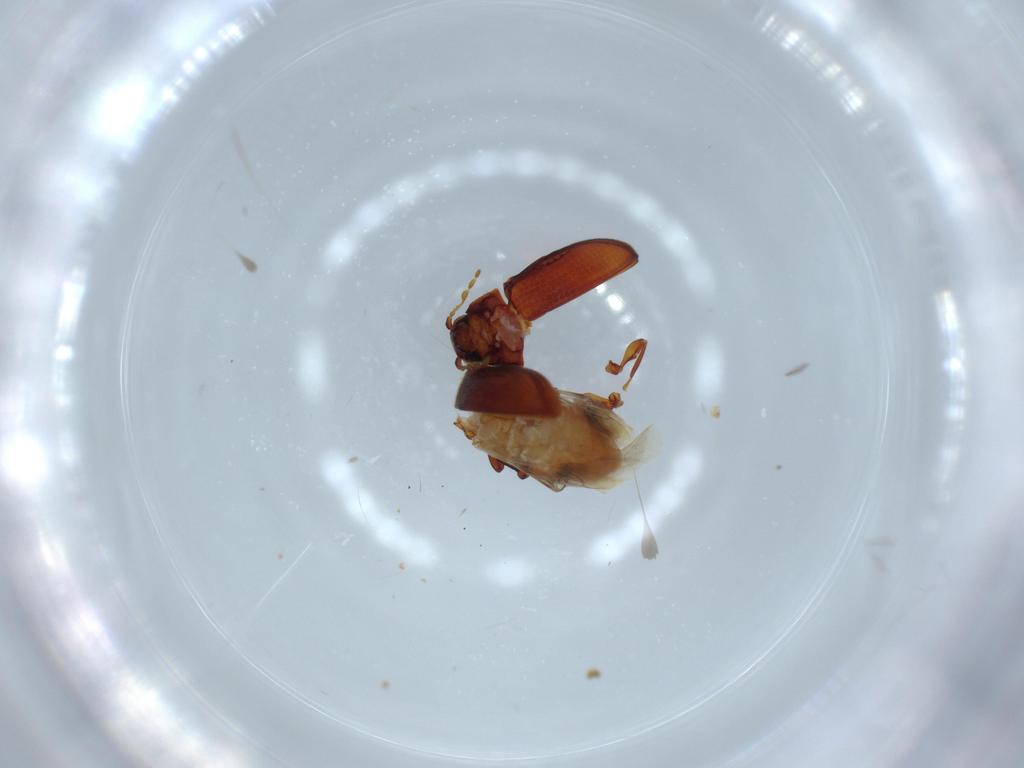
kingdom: Animalia
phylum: Arthropoda
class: Insecta
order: Coleoptera
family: Ptinidae
